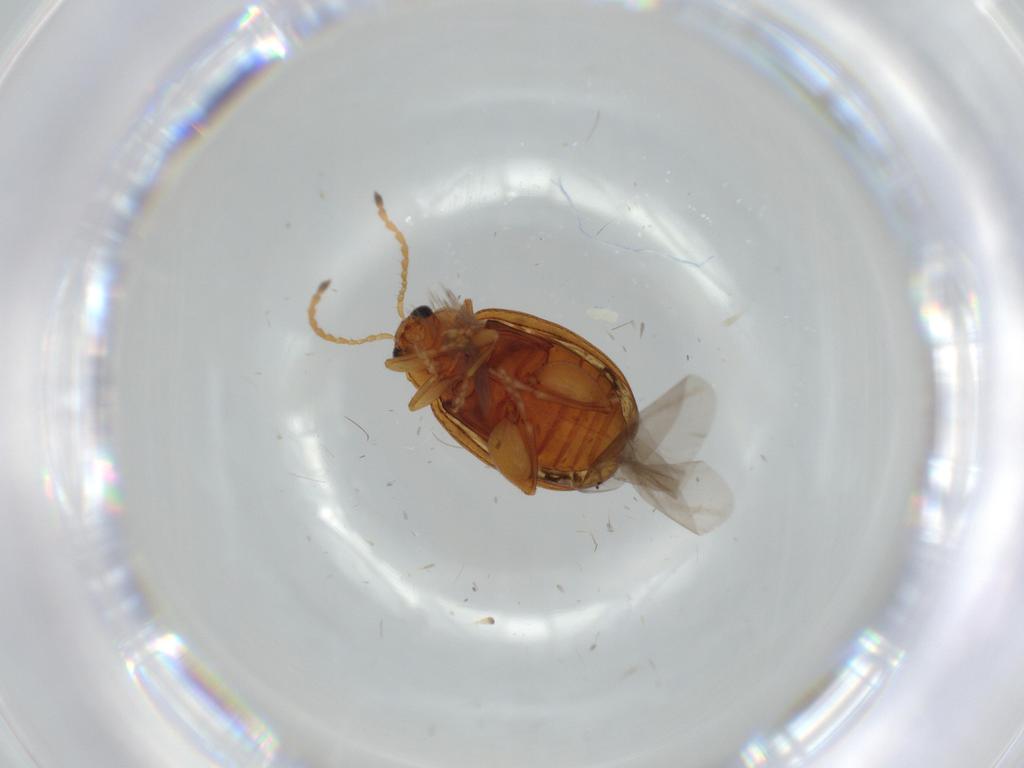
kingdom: Animalia
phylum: Arthropoda
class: Insecta
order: Coleoptera
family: Chrysomelidae
